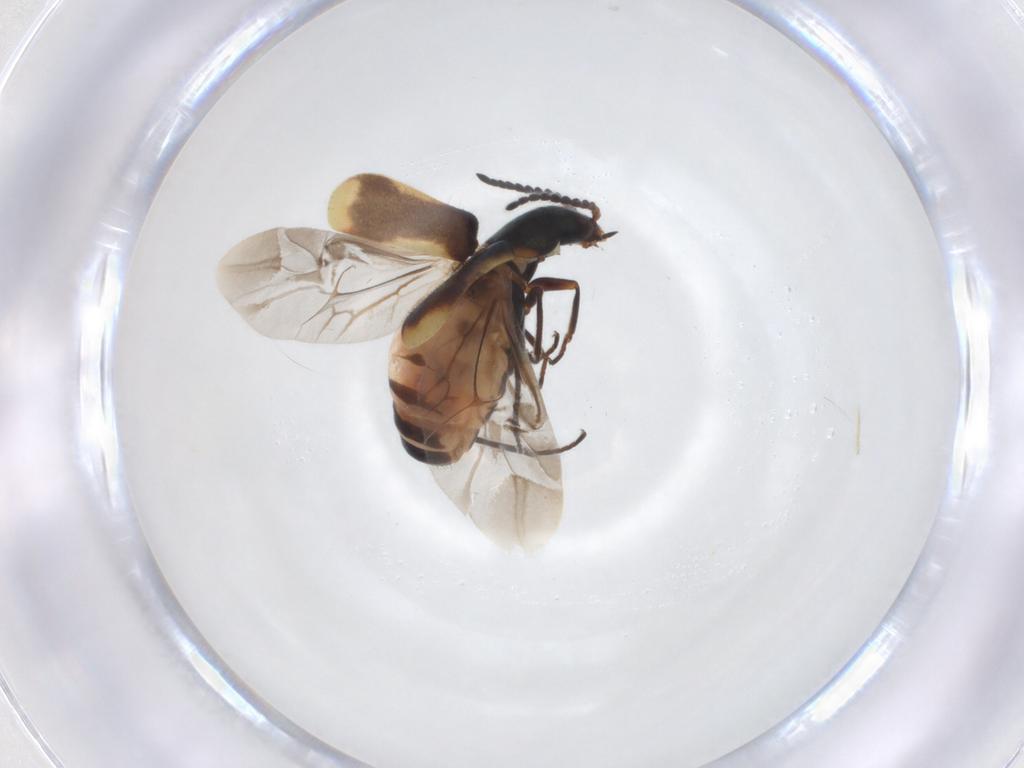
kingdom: Animalia
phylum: Arthropoda
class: Insecta
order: Coleoptera
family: Melyridae
